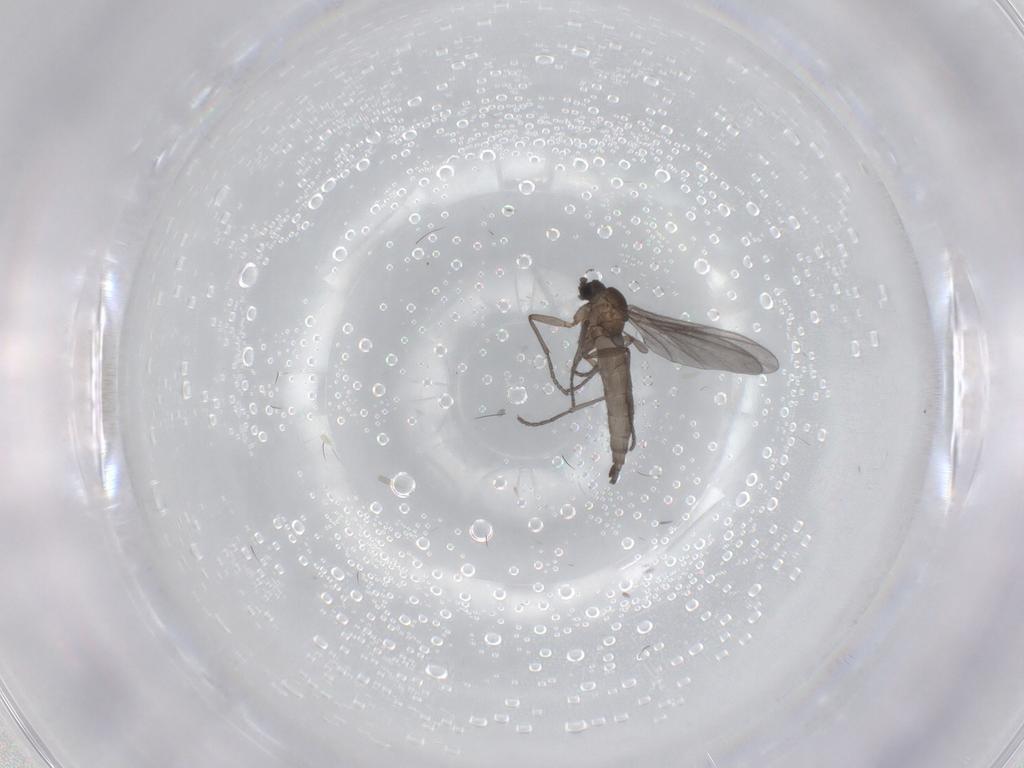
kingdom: Animalia
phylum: Arthropoda
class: Insecta
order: Diptera
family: Sciaridae
